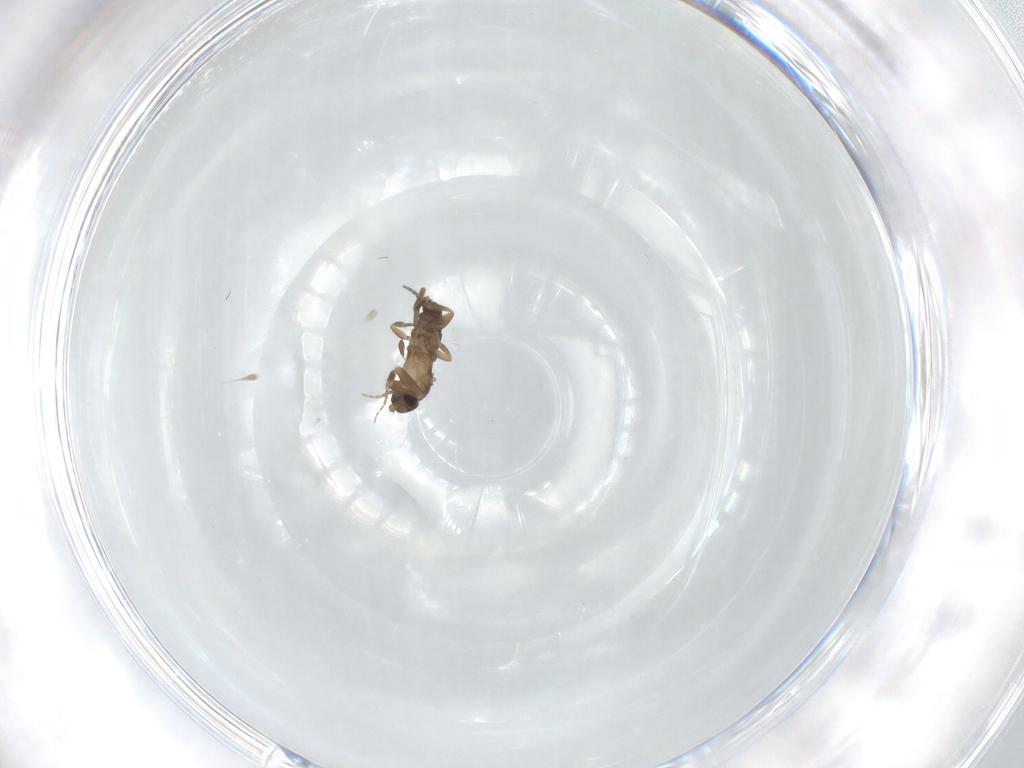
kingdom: Animalia
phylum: Arthropoda
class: Insecta
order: Diptera
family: Phoridae
